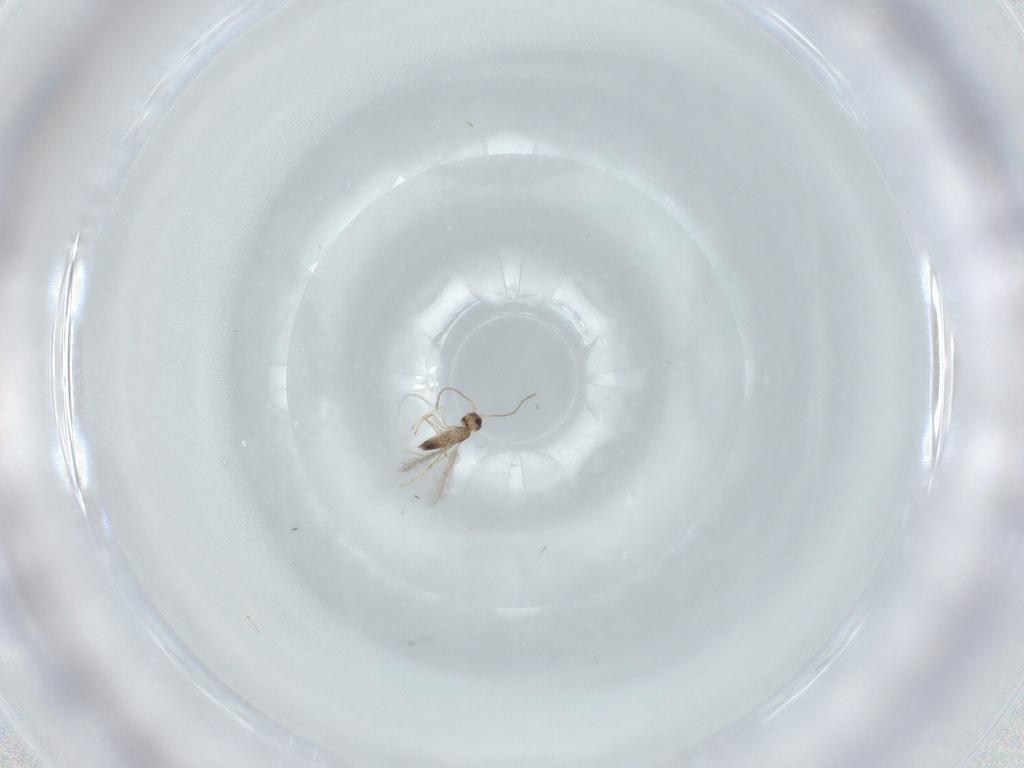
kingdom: Animalia
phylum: Arthropoda
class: Insecta
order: Hymenoptera
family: Mymaridae
